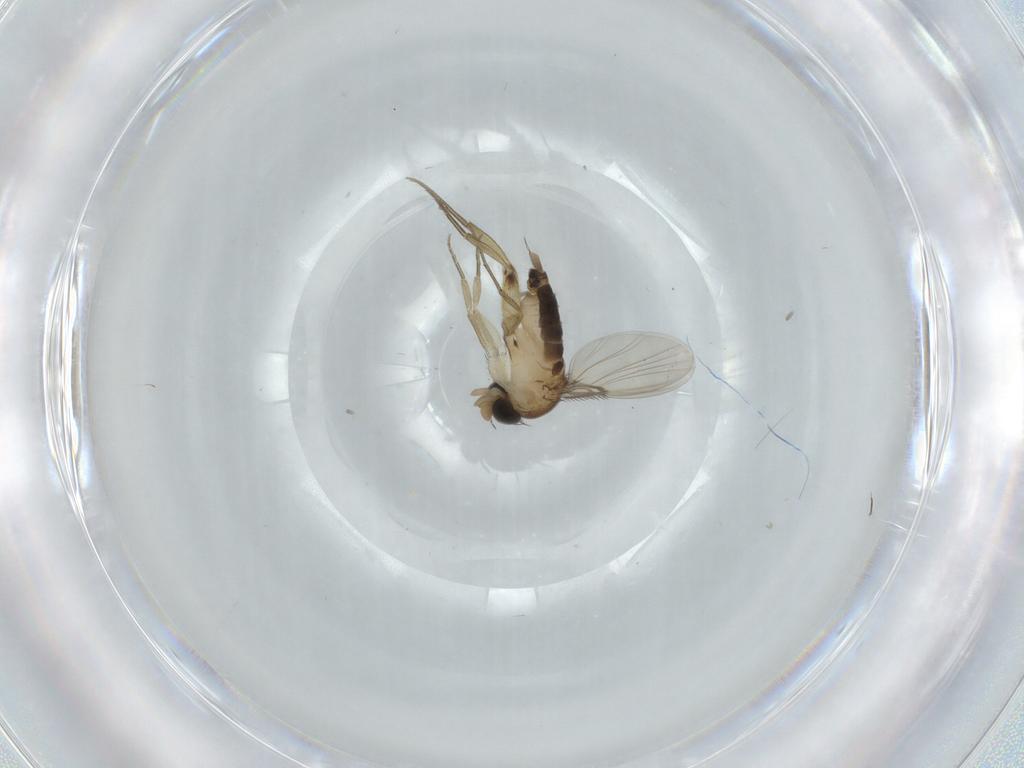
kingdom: Animalia
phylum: Arthropoda
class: Insecta
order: Diptera
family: Phoridae
